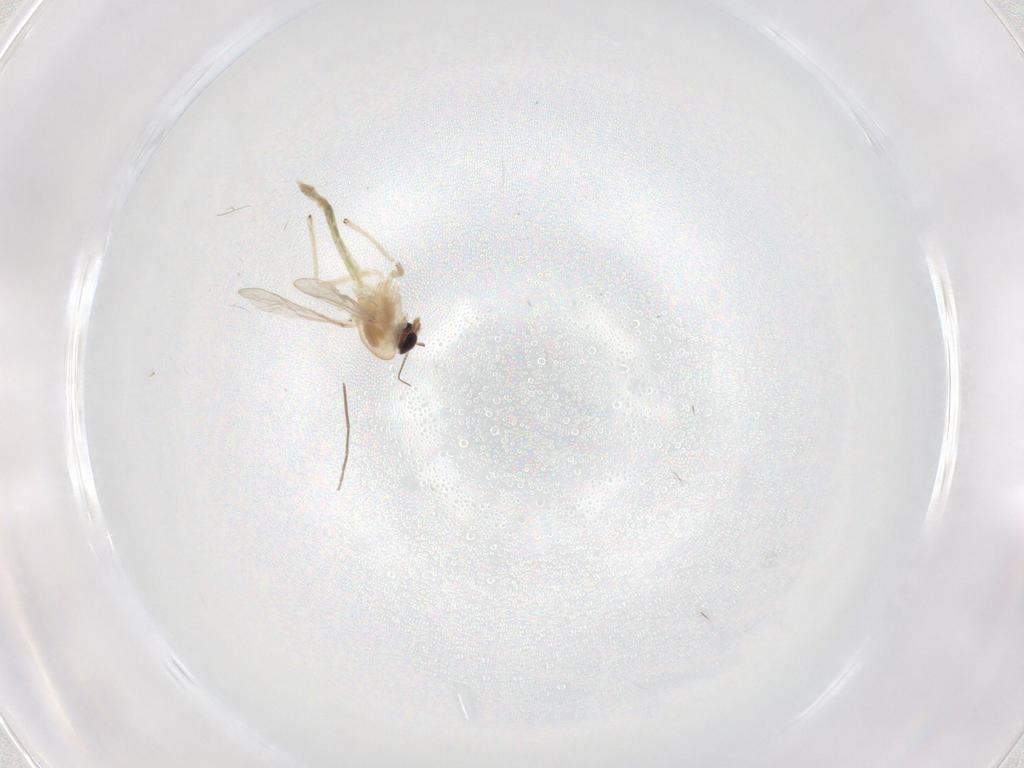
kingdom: Animalia
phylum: Arthropoda
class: Insecta
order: Diptera
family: Chironomidae
